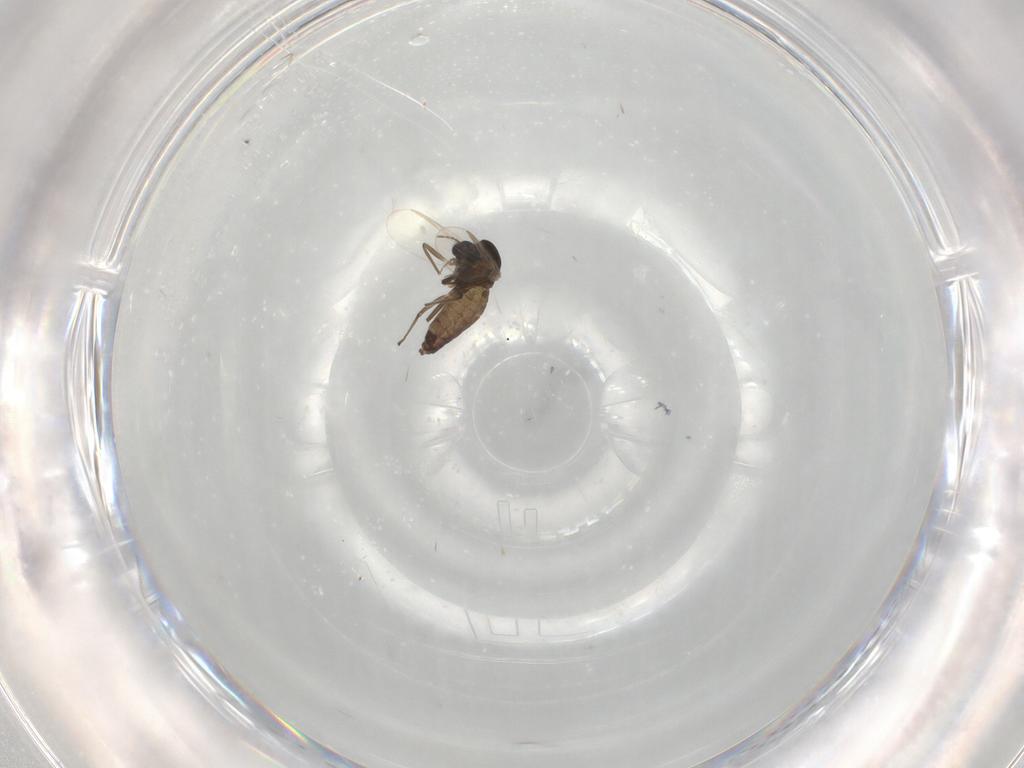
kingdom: Animalia
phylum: Arthropoda
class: Insecta
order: Diptera
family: Chironomidae
